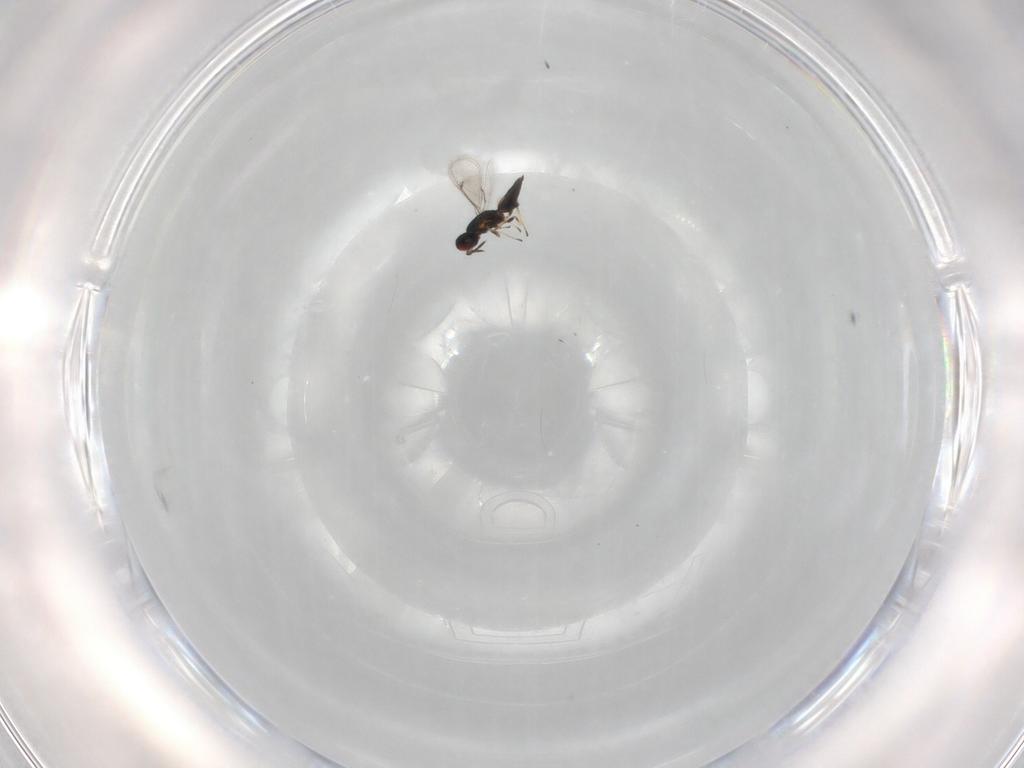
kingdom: Animalia
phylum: Arthropoda
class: Insecta
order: Hymenoptera
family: Eulophidae
